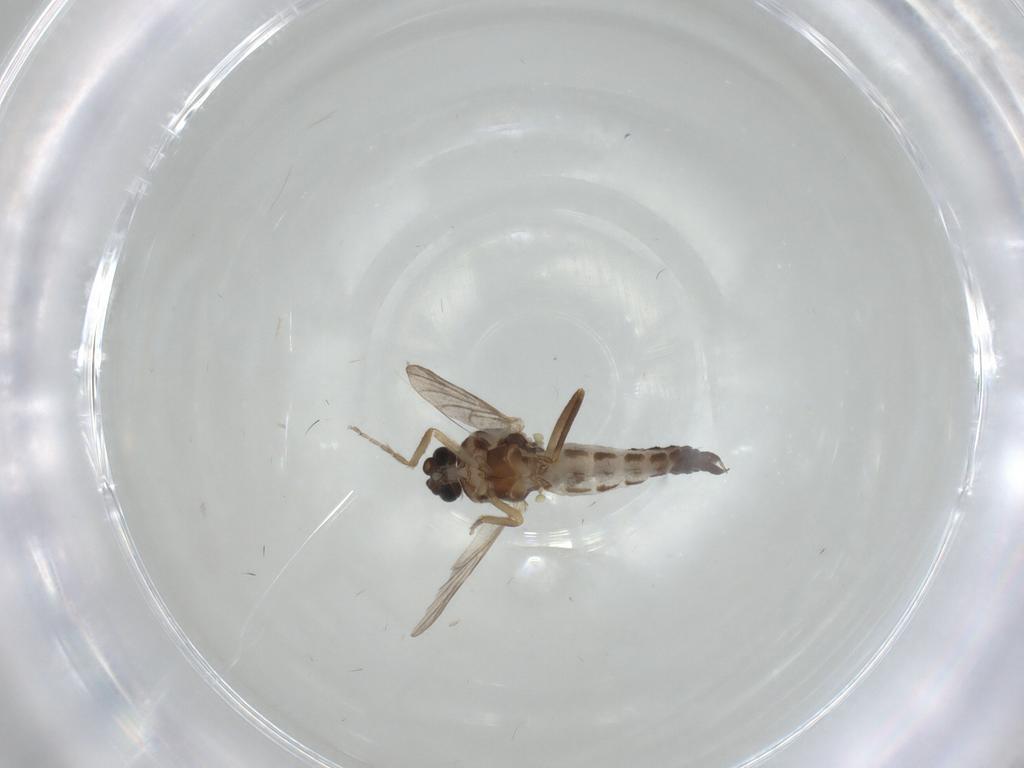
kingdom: Animalia
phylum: Arthropoda
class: Insecta
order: Diptera
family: Ceratopogonidae
